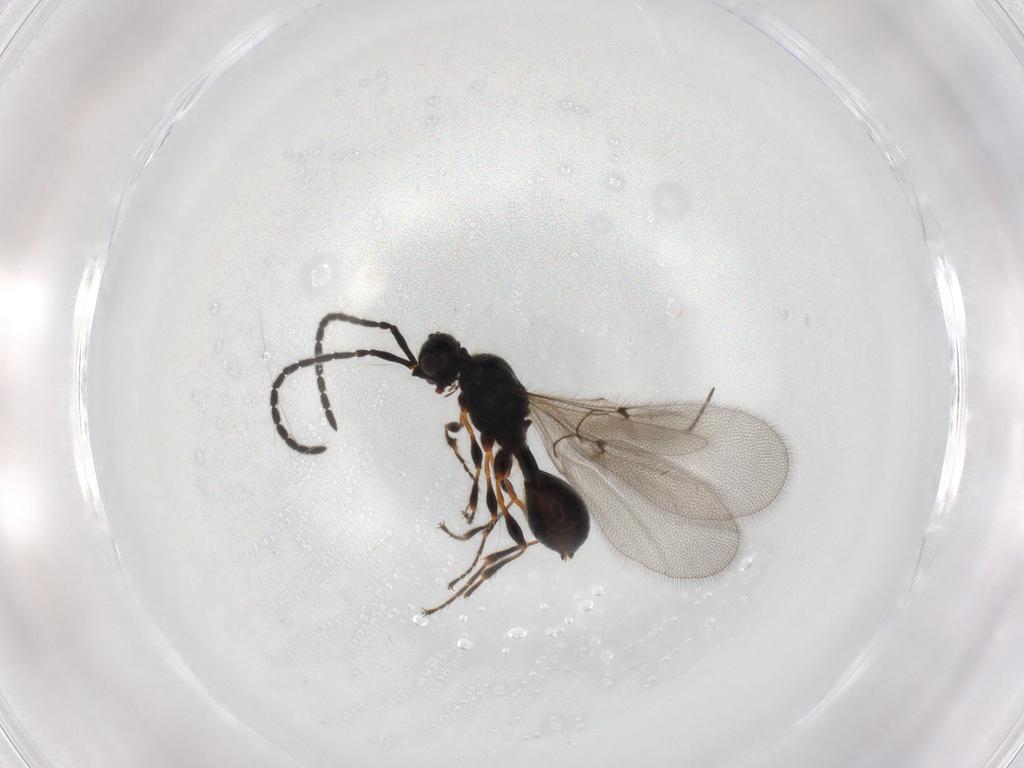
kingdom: Animalia
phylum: Arthropoda
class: Insecta
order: Hymenoptera
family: Diapriidae
